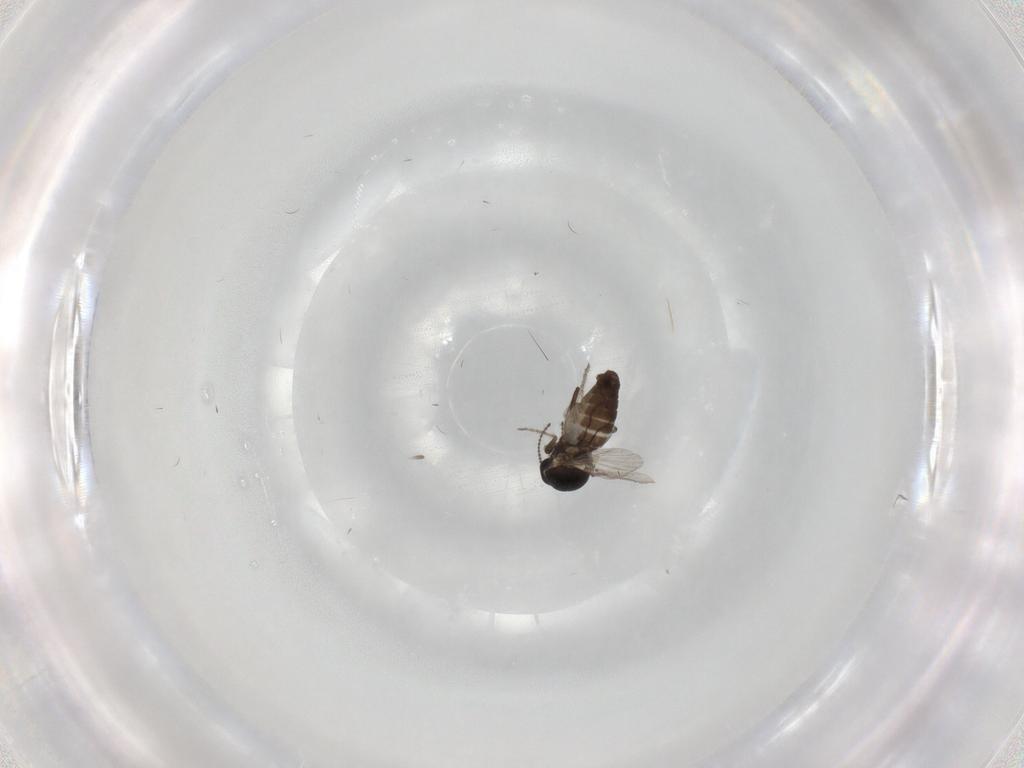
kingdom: Animalia
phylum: Arthropoda
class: Insecta
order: Diptera
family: Ceratopogonidae
